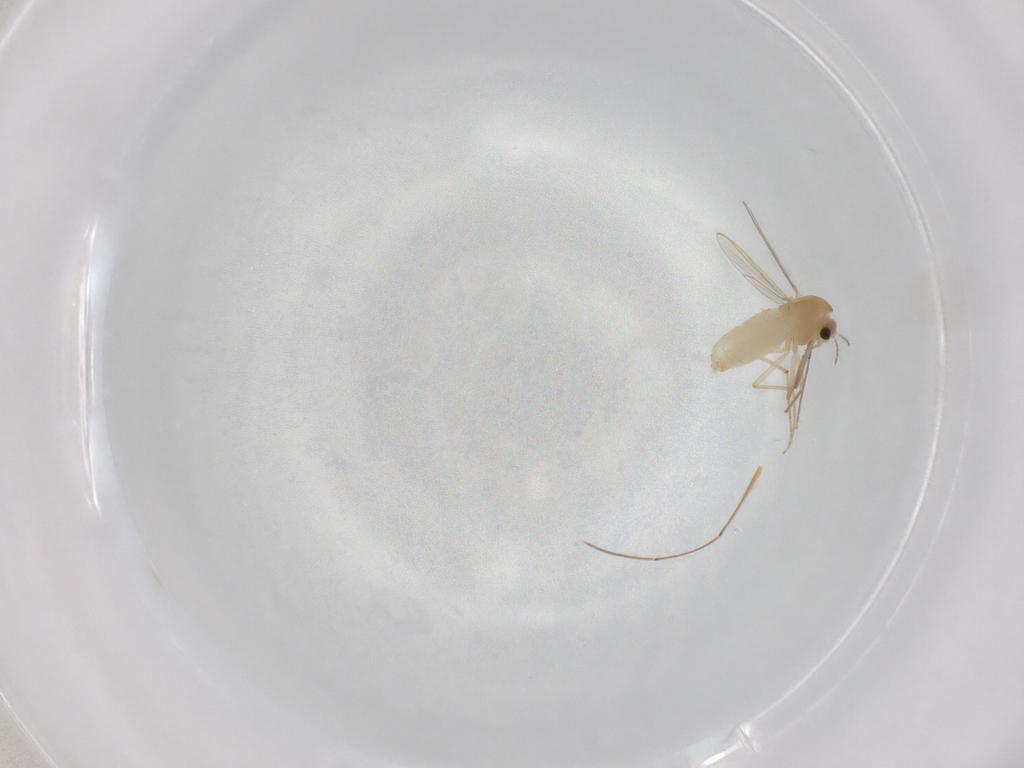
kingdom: Animalia
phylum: Arthropoda
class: Insecta
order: Diptera
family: Chironomidae
